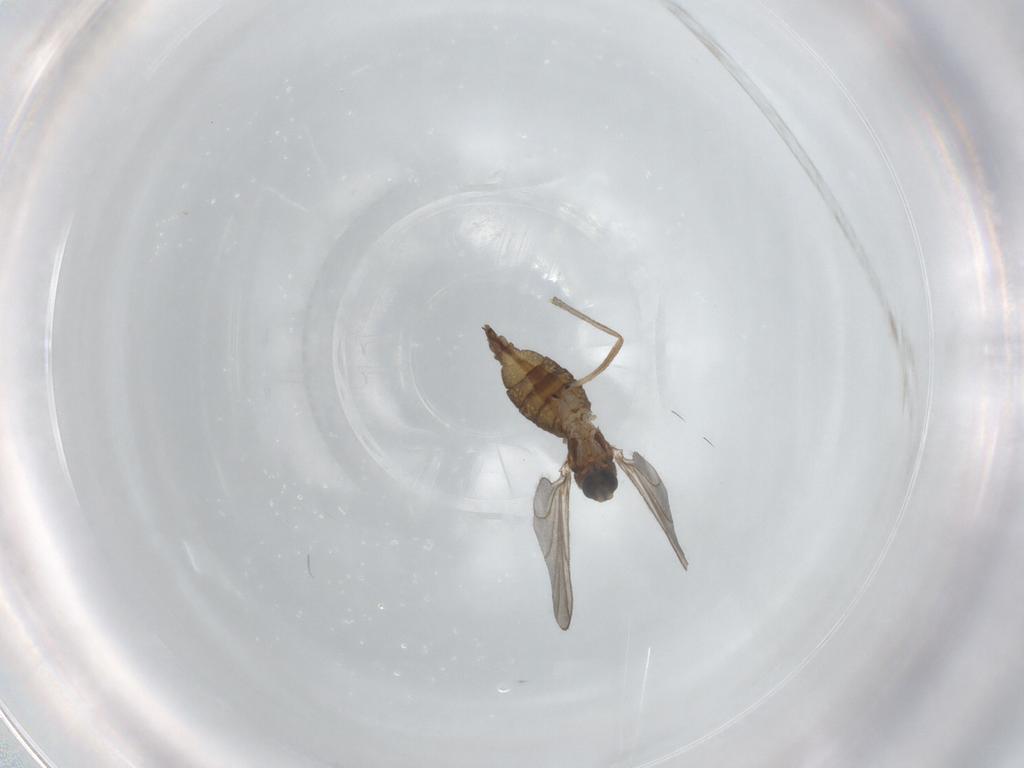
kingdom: Animalia
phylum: Arthropoda
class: Insecta
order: Diptera
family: Sciaridae
